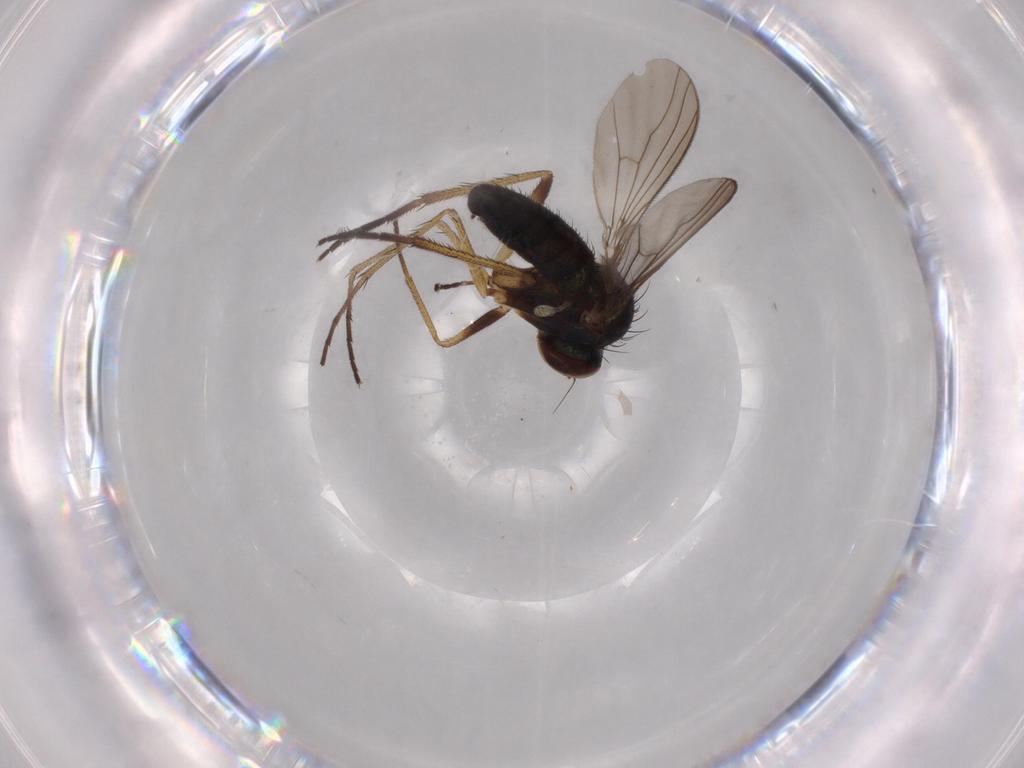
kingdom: Animalia
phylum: Arthropoda
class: Insecta
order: Diptera
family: Dolichopodidae
